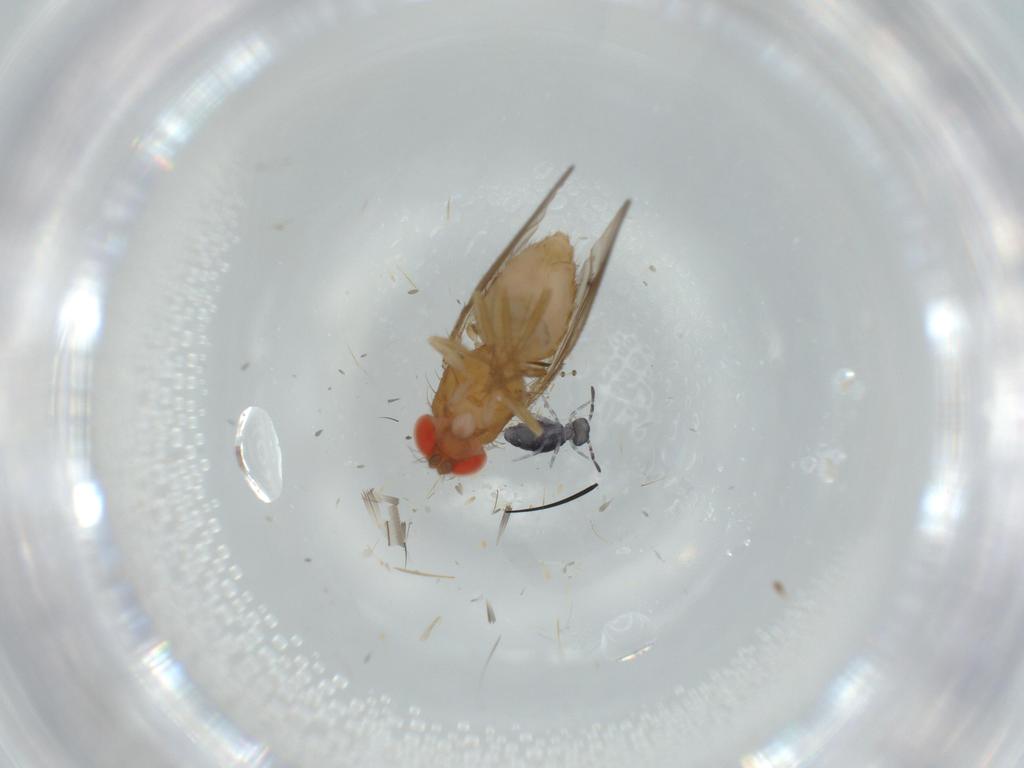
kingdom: Animalia
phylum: Arthropoda
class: Insecta
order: Diptera
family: Drosophilidae
